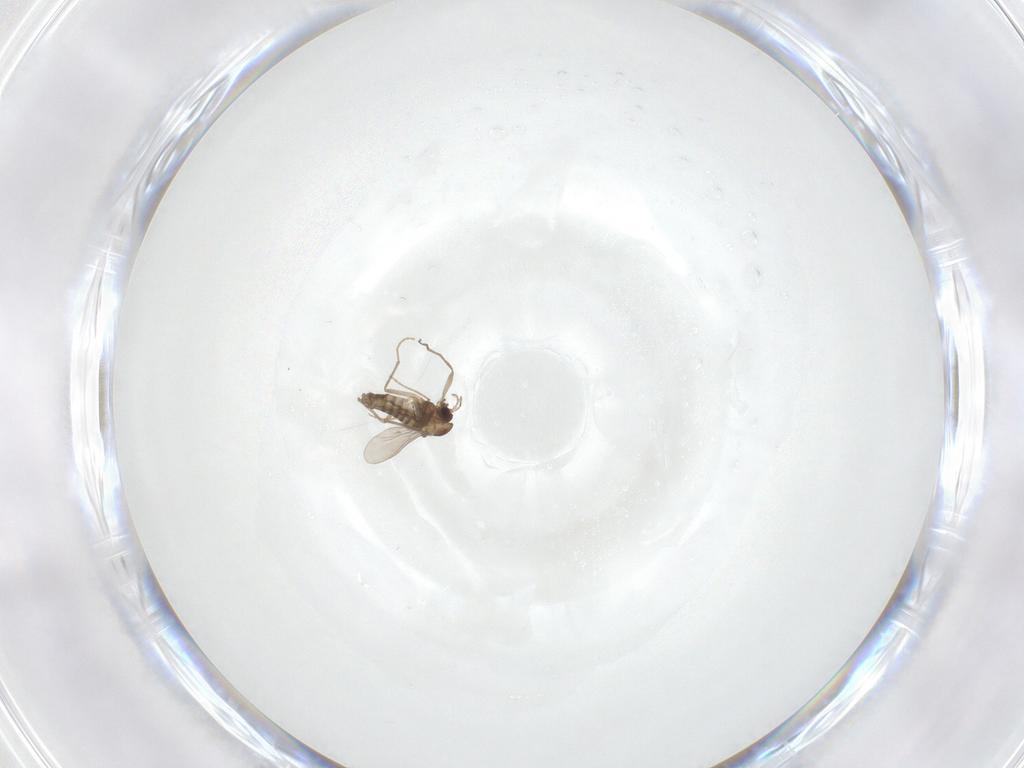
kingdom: Animalia
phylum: Arthropoda
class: Insecta
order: Diptera
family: Chironomidae
